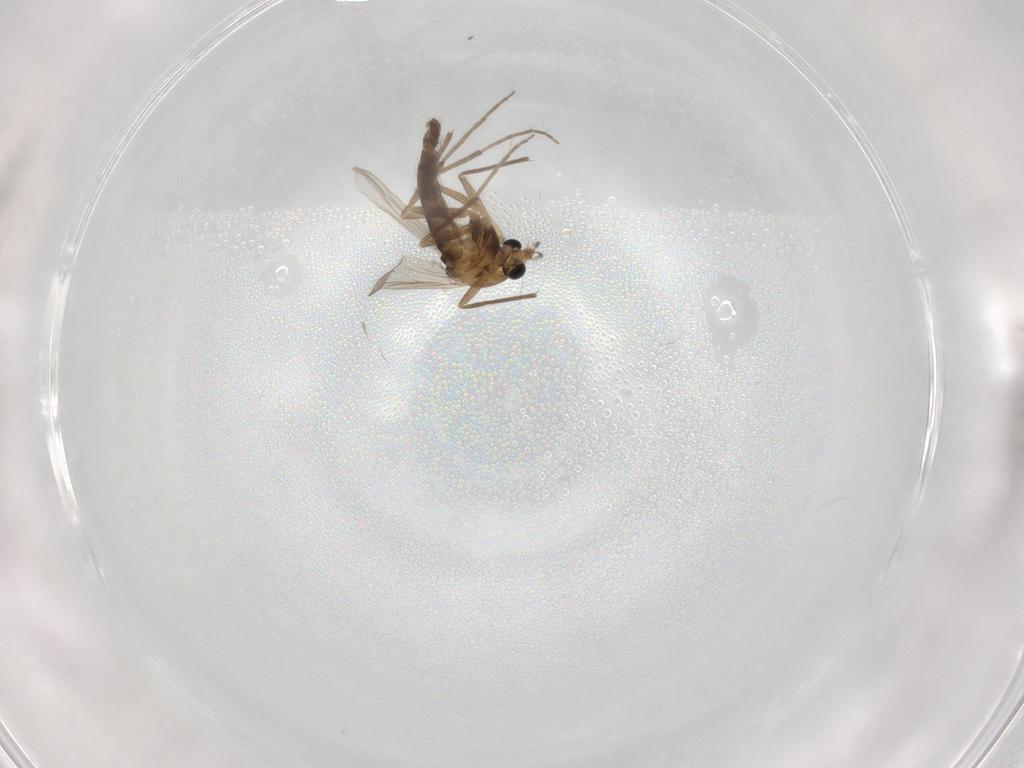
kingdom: Animalia
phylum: Arthropoda
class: Insecta
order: Diptera
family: Chironomidae
